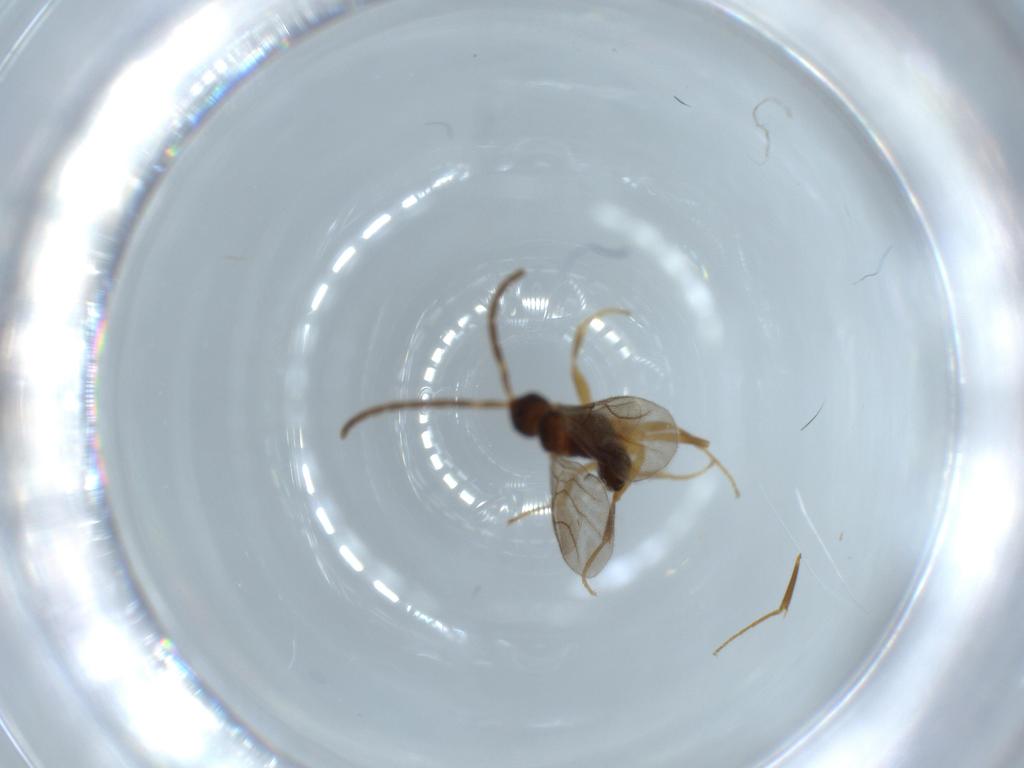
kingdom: Animalia
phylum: Arthropoda
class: Insecta
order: Hymenoptera
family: Embolemidae
